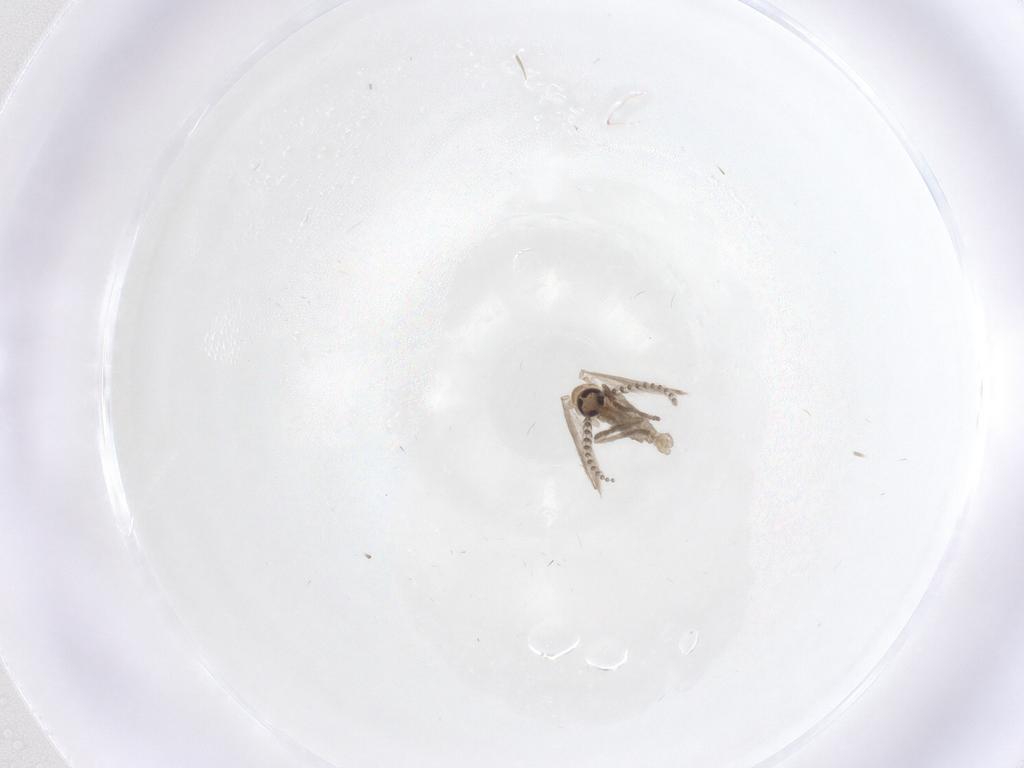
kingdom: Animalia
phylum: Arthropoda
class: Insecta
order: Diptera
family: Psychodidae
